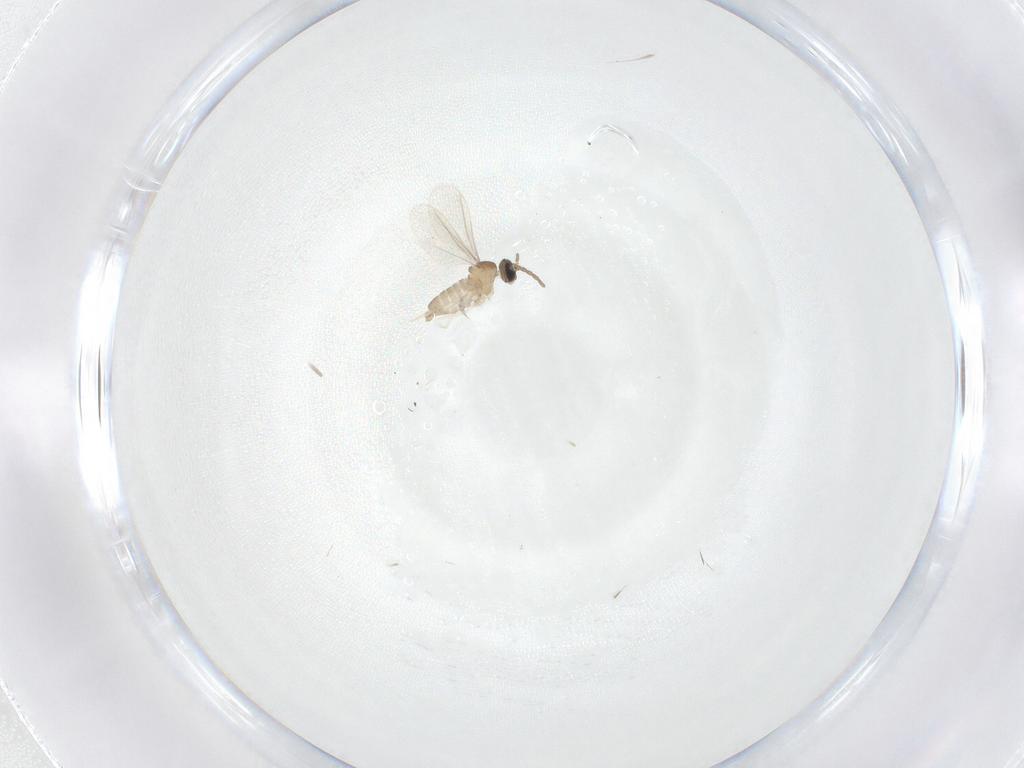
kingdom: Animalia
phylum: Arthropoda
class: Insecta
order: Diptera
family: Cecidomyiidae
